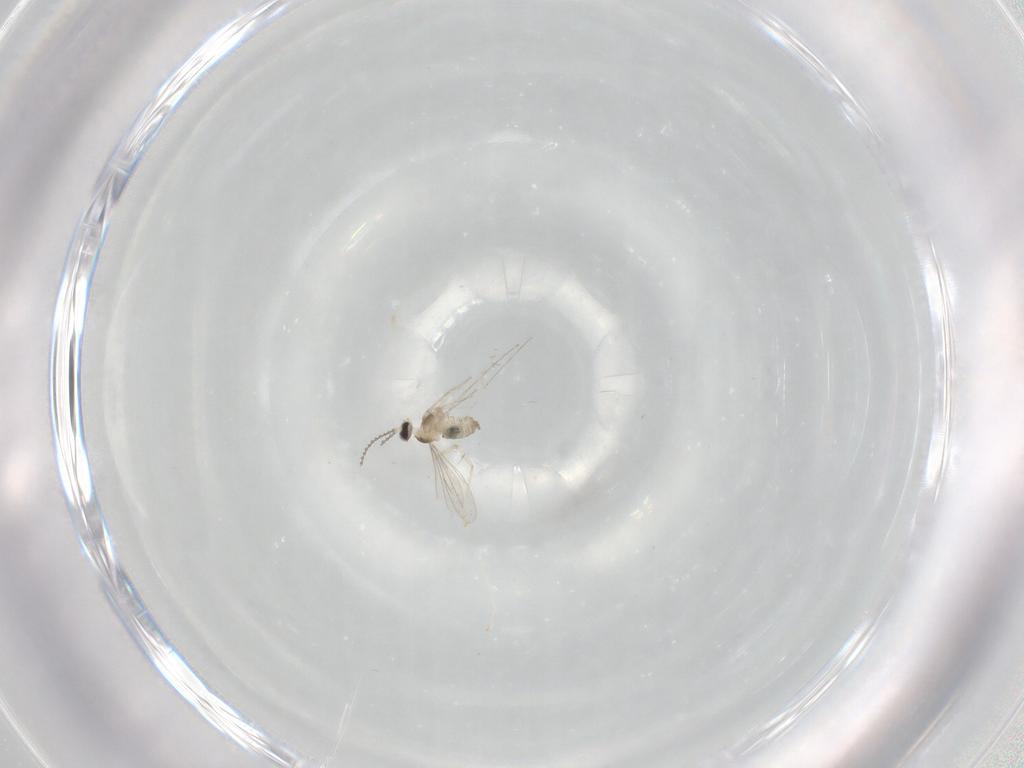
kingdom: Animalia
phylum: Arthropoda
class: Insecta
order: Diptera
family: Cecidomyiidae
